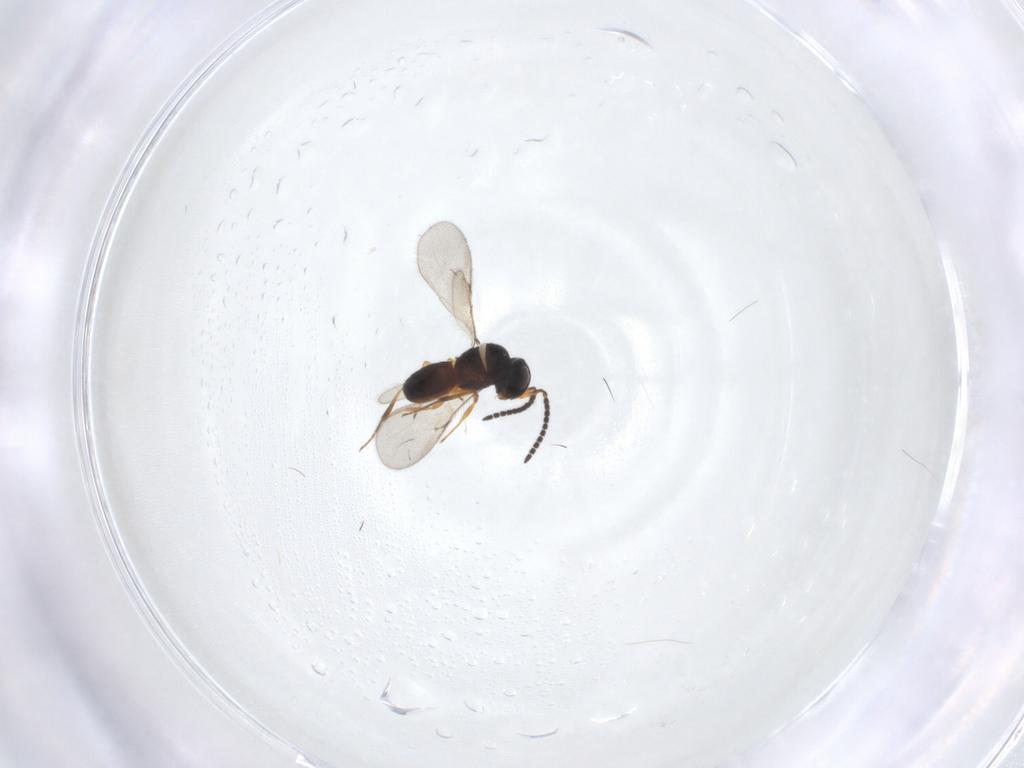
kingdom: Animalia
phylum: Arthropoda
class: Insecta
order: Hymenoptera
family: Scelionidae
